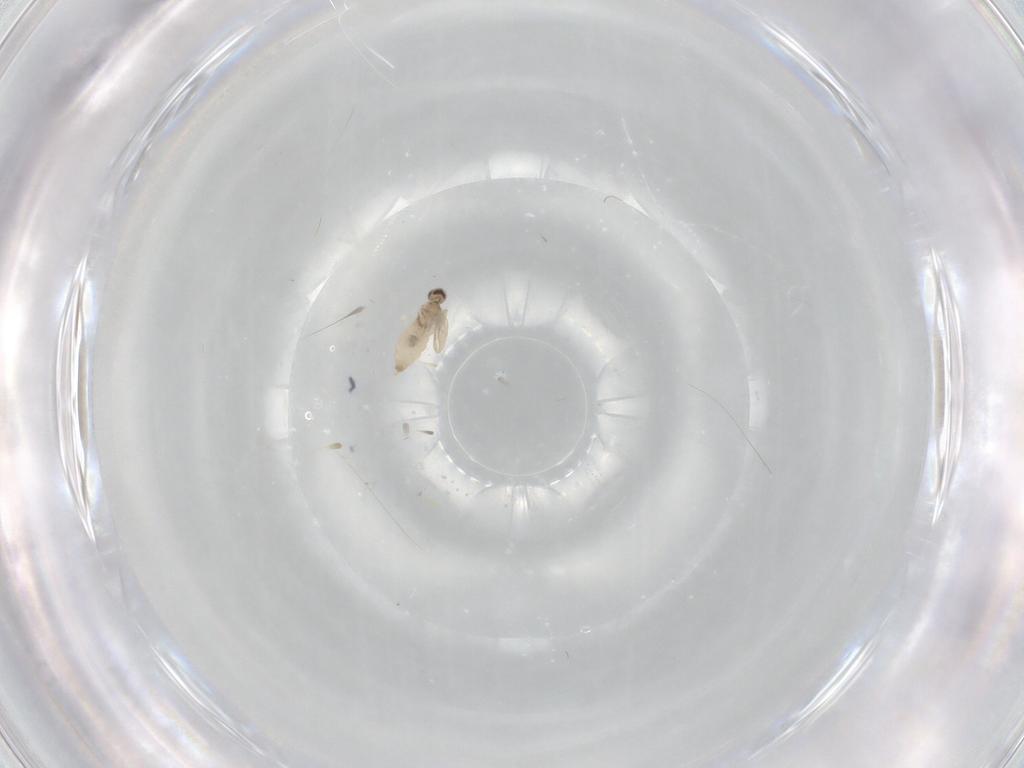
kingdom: Animalia
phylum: Arthropoda
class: Insecta
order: Diptera
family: Cecidomyiidae
